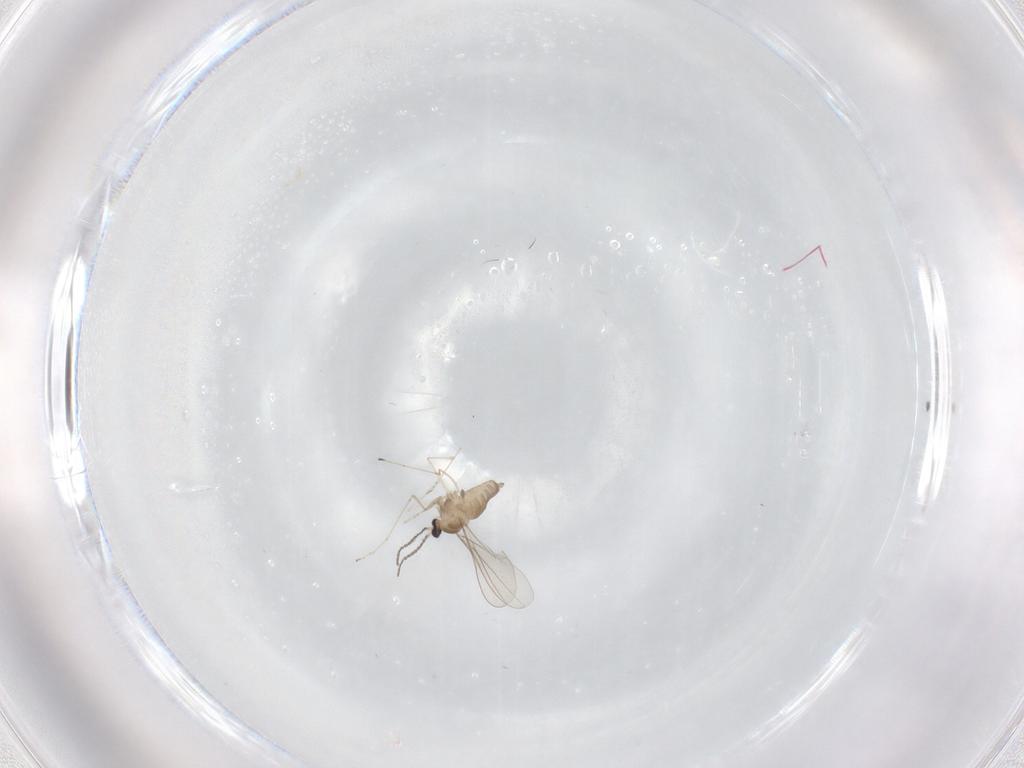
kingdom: Animalia
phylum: Arthropoda
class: Insecta
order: Diptera
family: Cecidomyiidae
